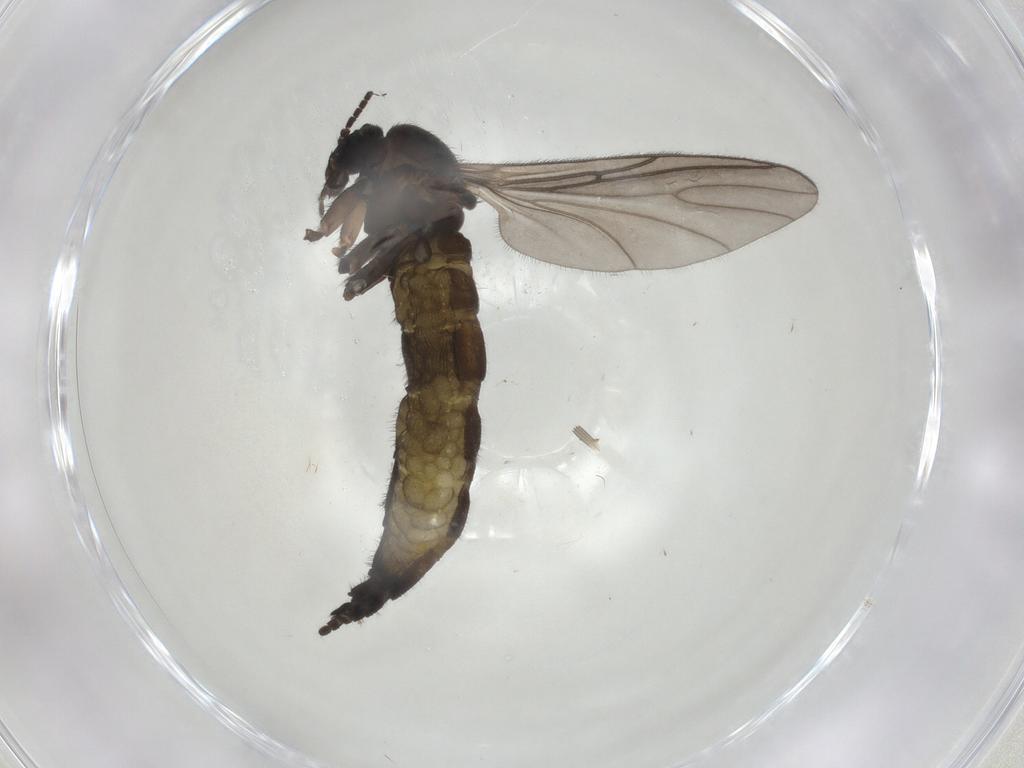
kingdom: Animalia
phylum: Arthropoda
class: Insecta
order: Diptera
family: Sciaridae
